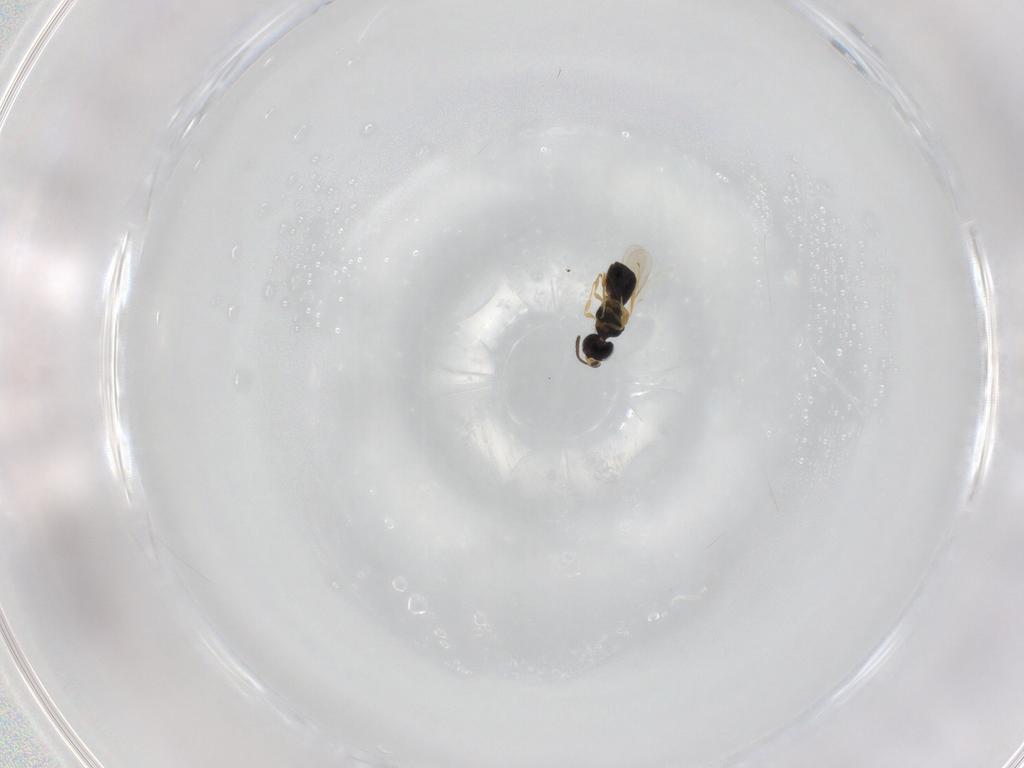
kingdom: Animalia
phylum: Arthropoda
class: Insecta
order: Hymenoptera
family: Scelionidae
